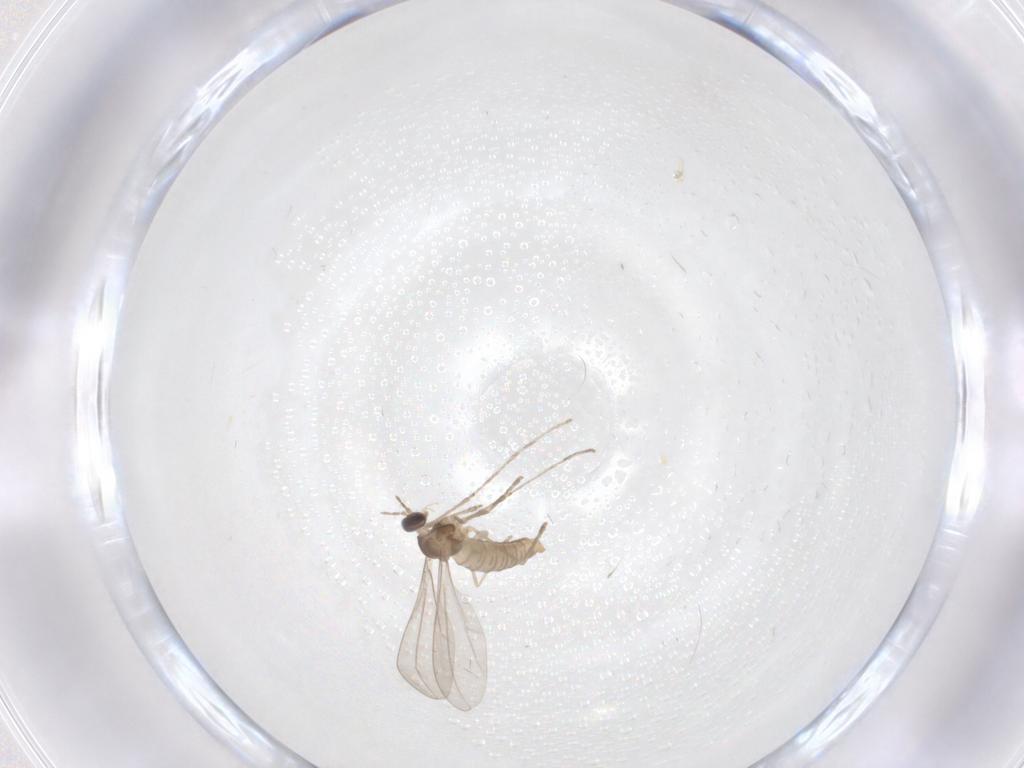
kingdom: Animalia
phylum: Arthropoda
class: Insecta
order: Diptera
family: Cecidomyiidae
